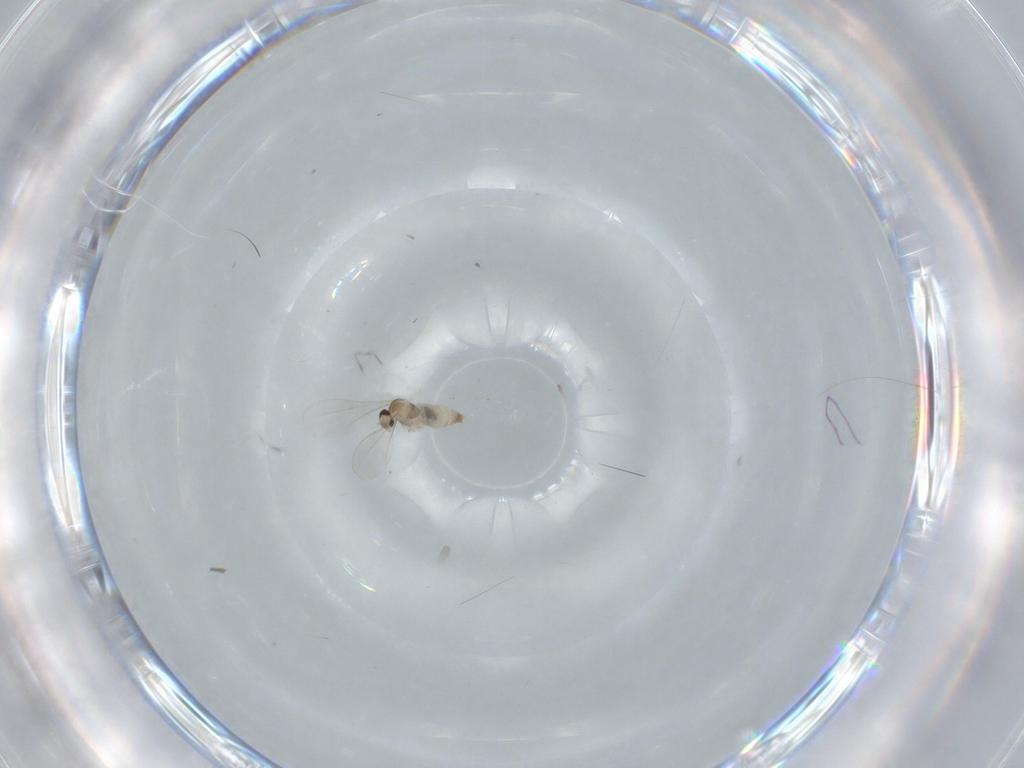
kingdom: Animalia
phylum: Arthropoda
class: Insecta
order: Diptera
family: Cecidomyiidae
